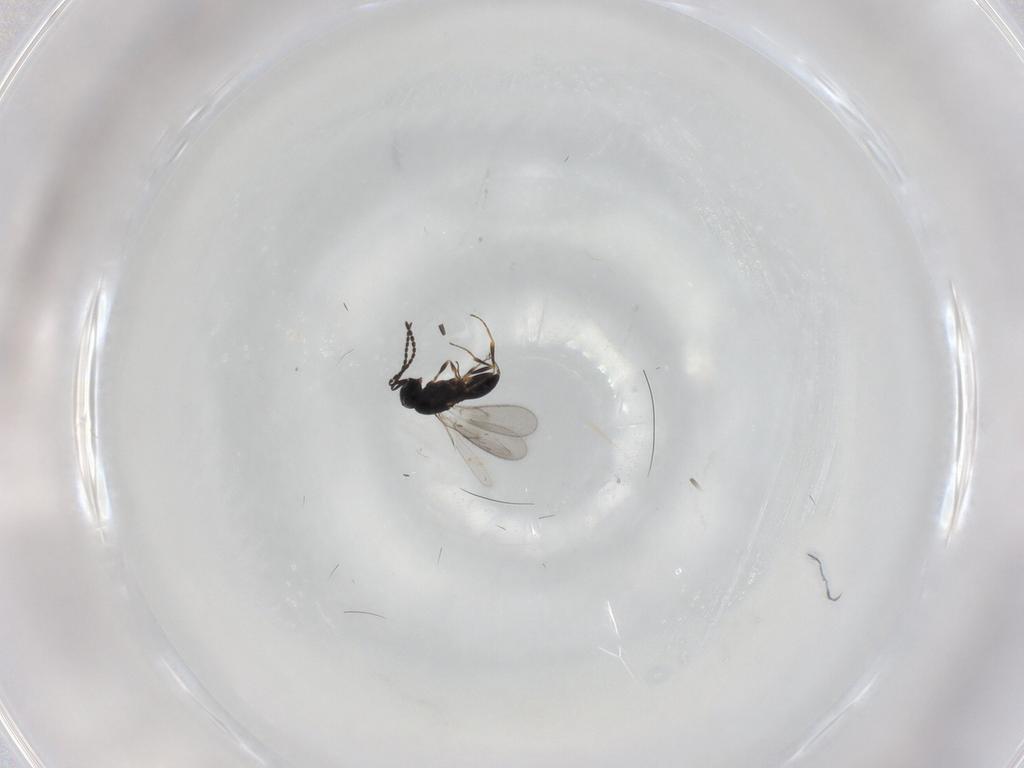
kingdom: Animalia
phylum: Arthropoda
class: Insecta
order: Hymenoptera
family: Scelionidae
